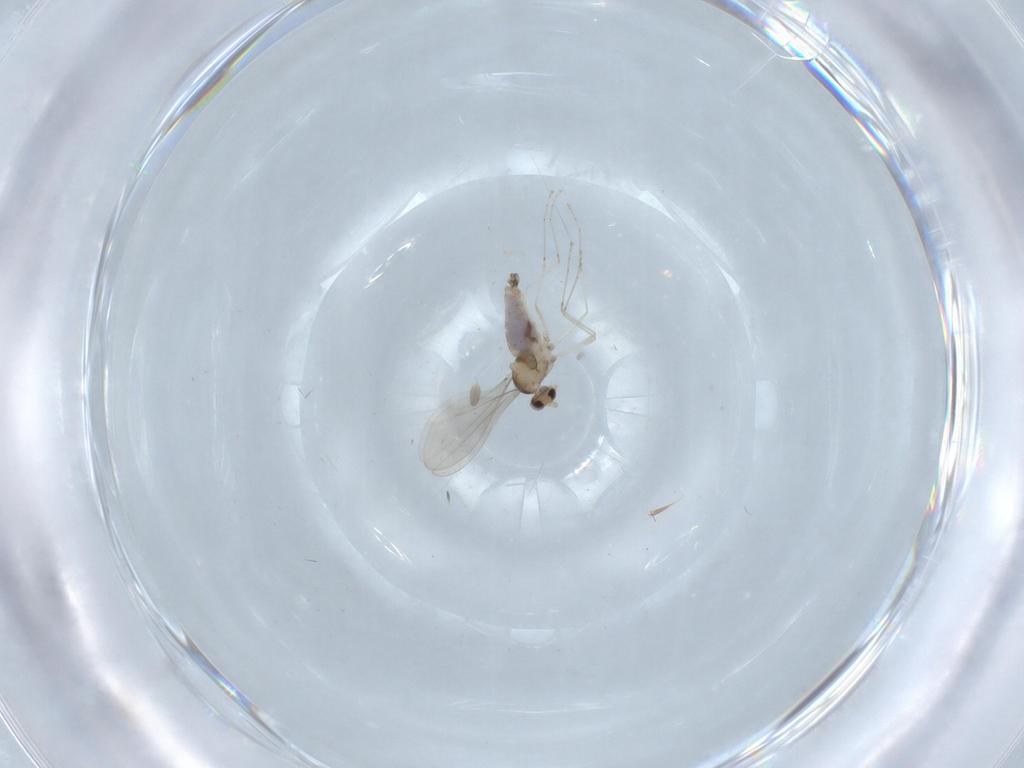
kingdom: Animalia
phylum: Arthropoda
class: Insecta
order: Diptera
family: Cecidomyiidae
